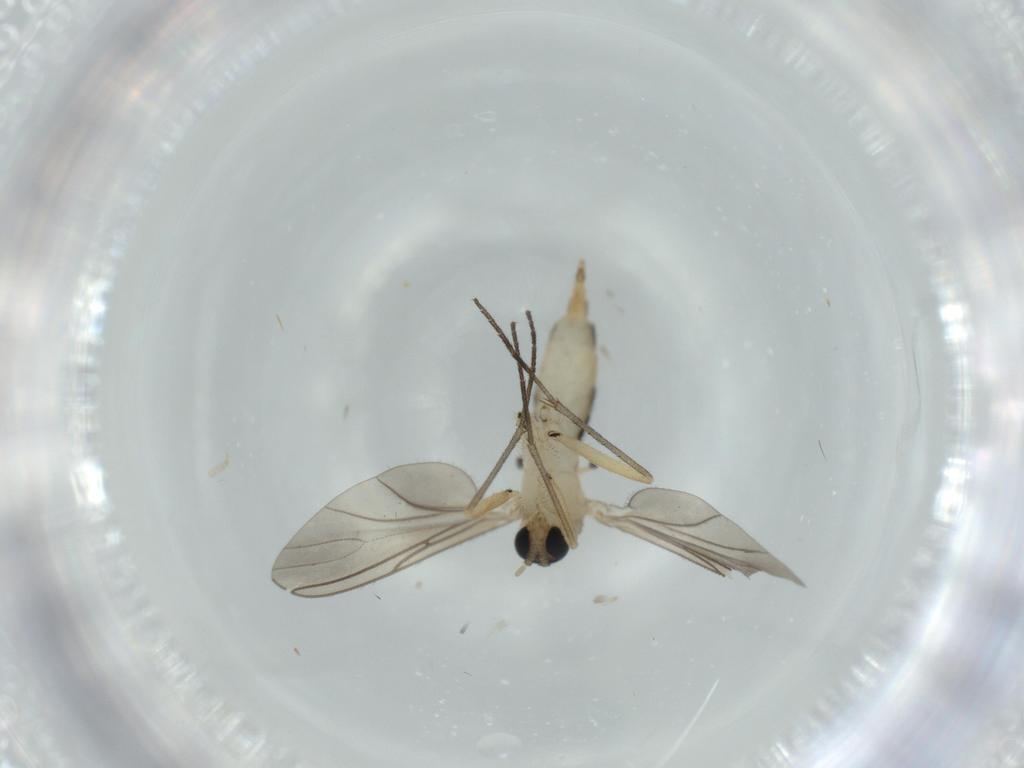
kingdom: Animalia
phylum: Arthropoda
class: Insecta
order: Diptera
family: Sciaridae
